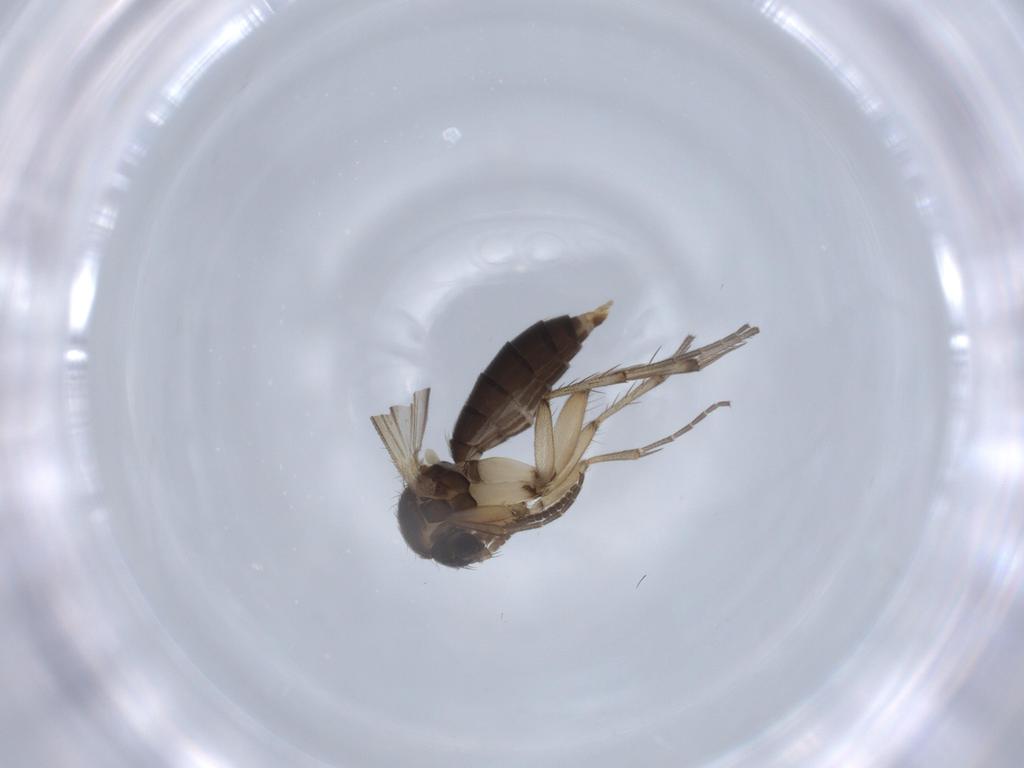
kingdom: Animalia
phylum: Arthropoda
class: Insecta
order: Diptera
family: Mycetophilidae
